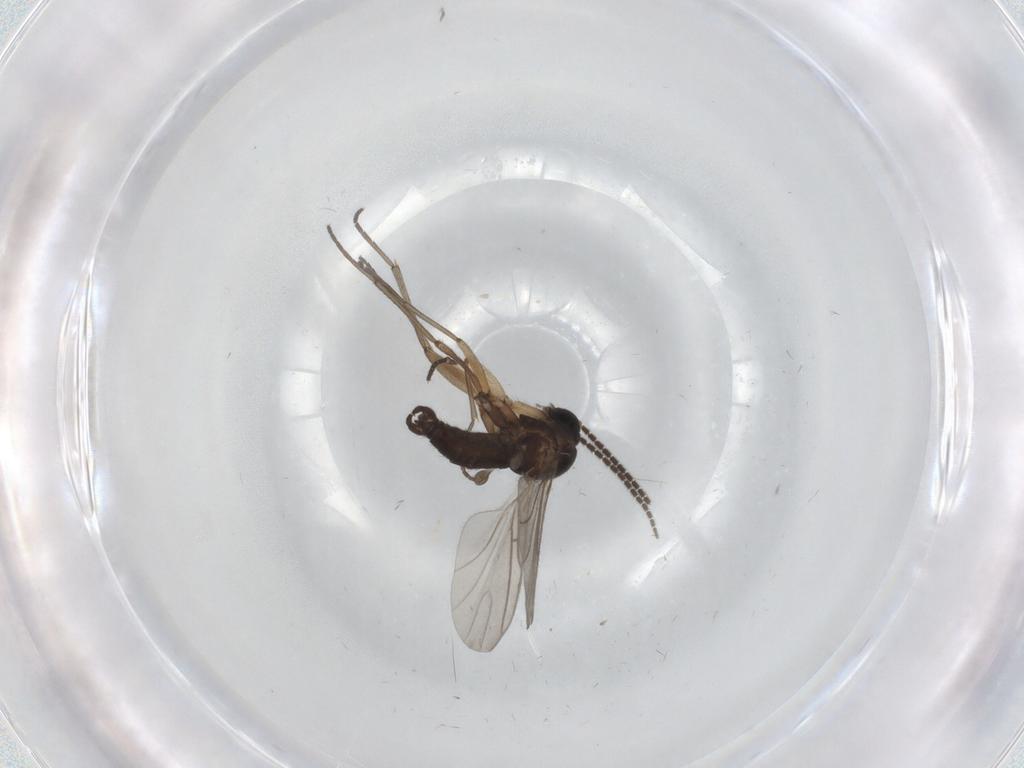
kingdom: Animalia
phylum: Arthropoda
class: Insecta
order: Diptera
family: Sciaridae
